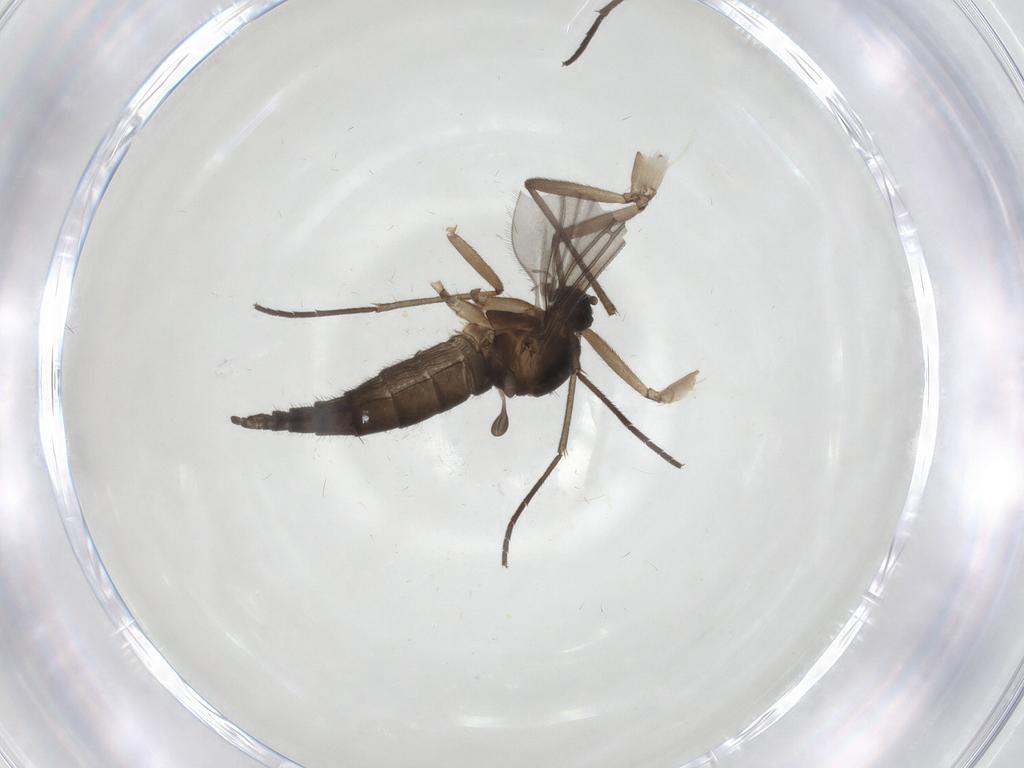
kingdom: Animalia
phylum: Arthropoda
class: Insecta
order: Diptera
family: Sciaridae
